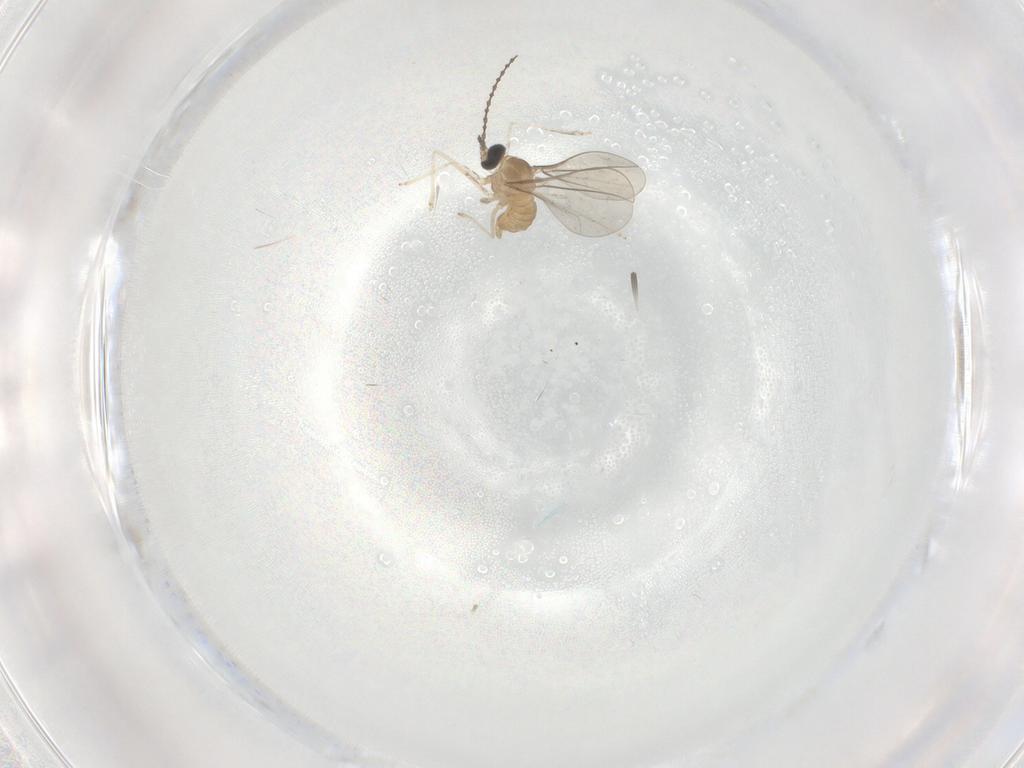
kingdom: Animalia
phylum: Arthropoda
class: Insecta
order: Diptera
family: Cecidomyiidae
